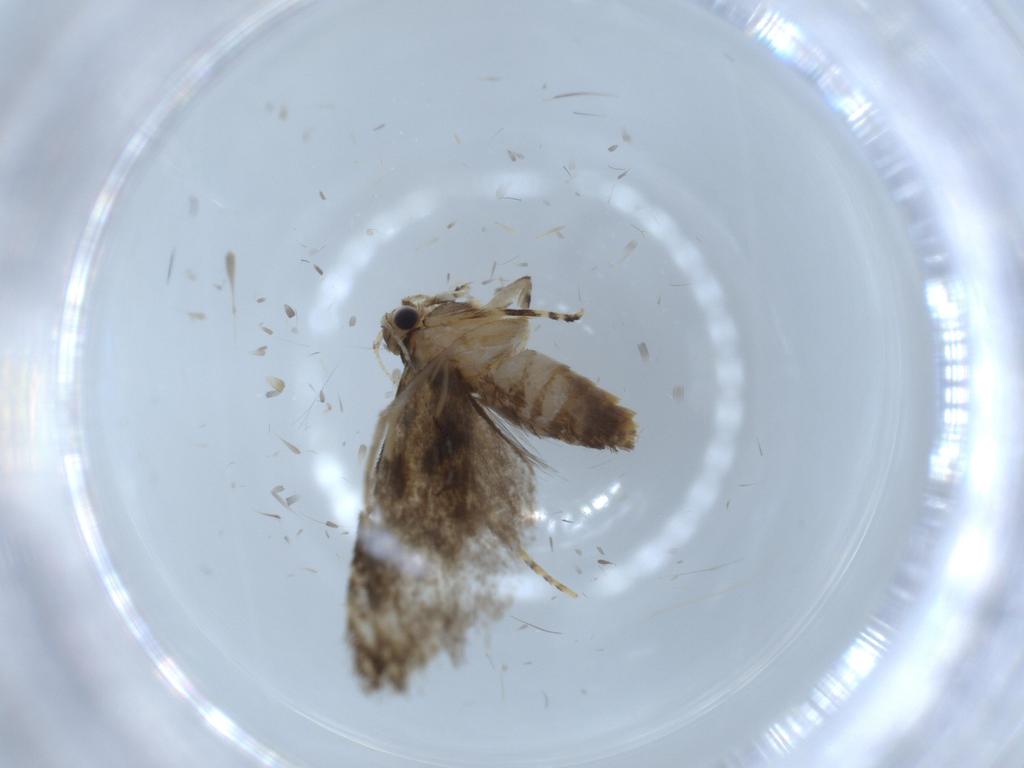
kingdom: Animalia
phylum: Arthropoda
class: Insecta
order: Lepidoptera
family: Tineidae
